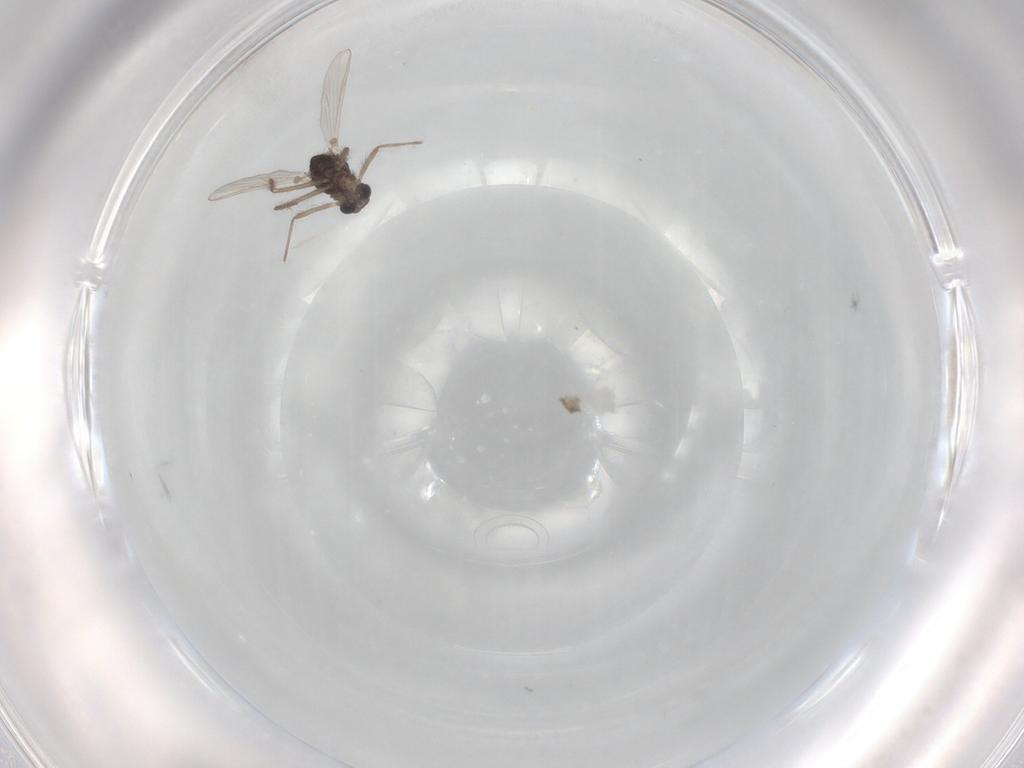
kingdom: Animalia
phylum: Arthropoda
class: Insecta
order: Diptera
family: Chironomidae
